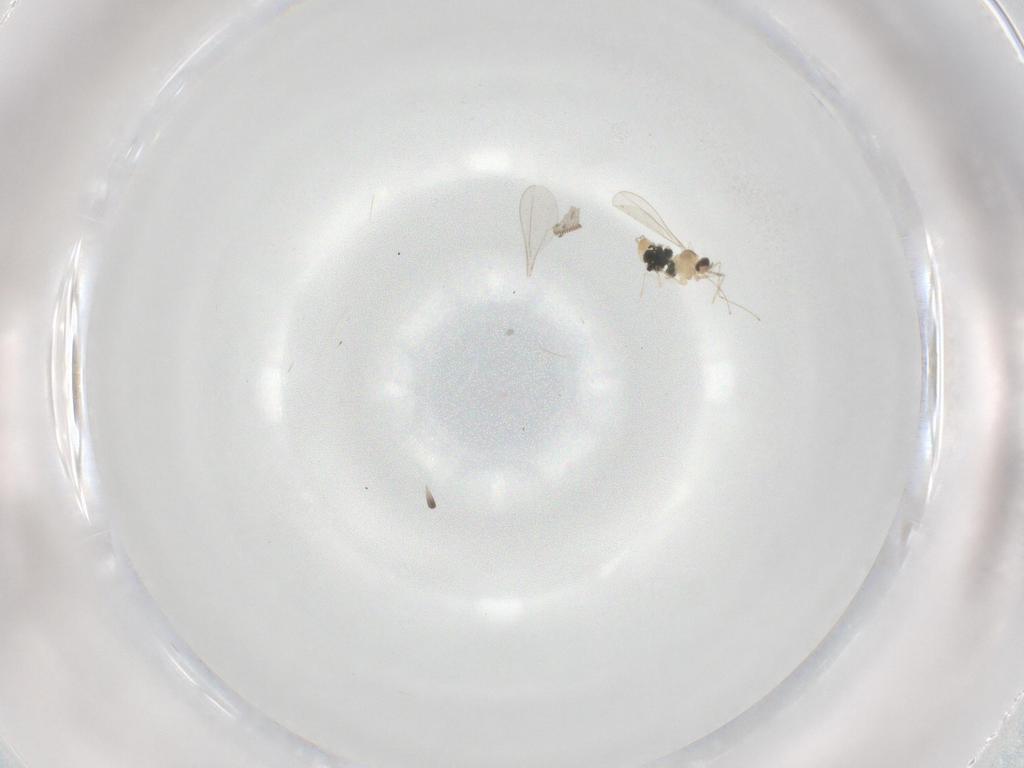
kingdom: Animalia
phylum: Arthropoda
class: Insecta
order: Diptera
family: Cecidomyiidae
